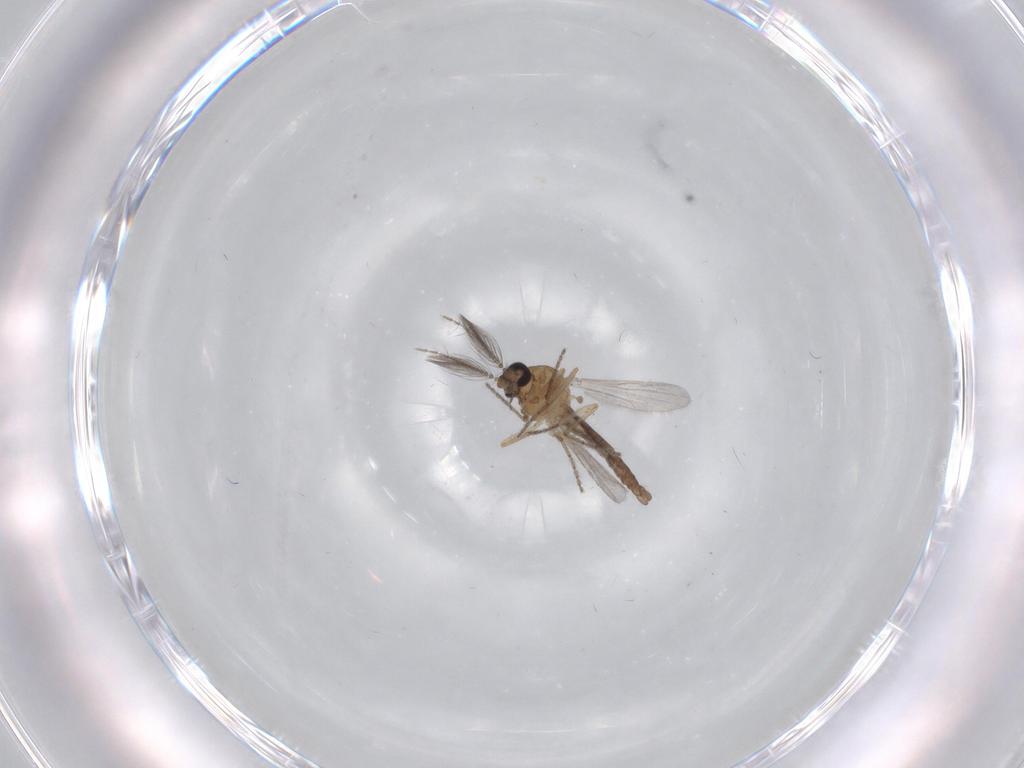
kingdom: Animalia
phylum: Arthropoda
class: Insecta
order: Diptera
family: Ceratopogonidae
